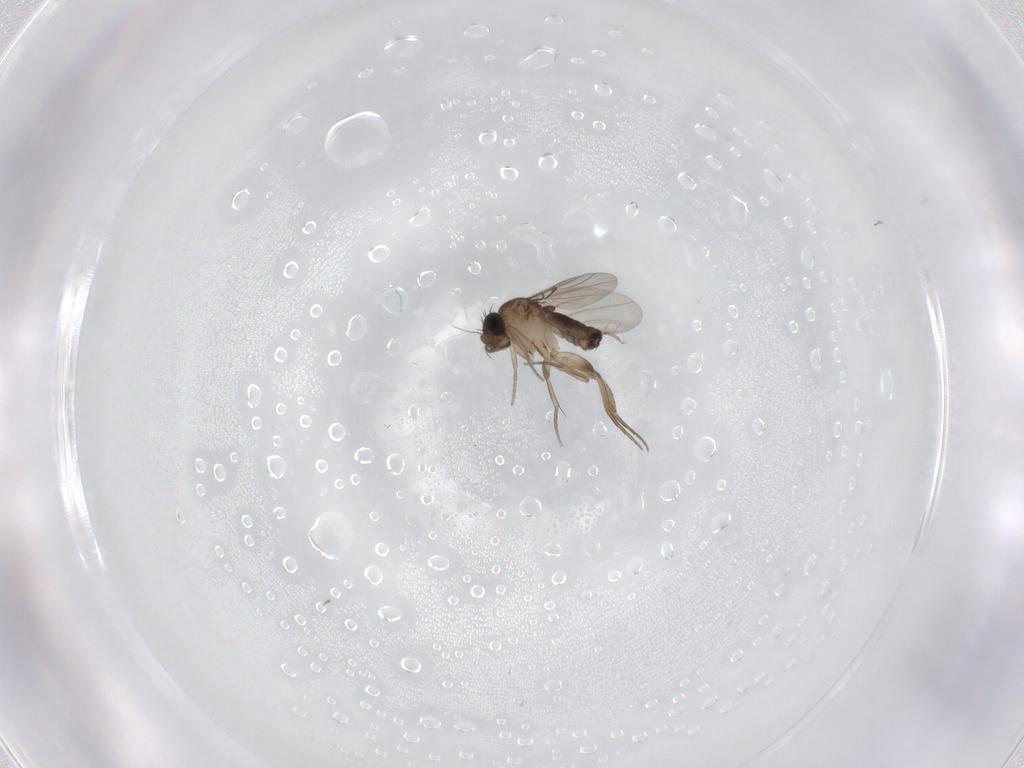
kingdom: Animalia
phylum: Arthropoda
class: Insecta
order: Diptera
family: Phoridae
